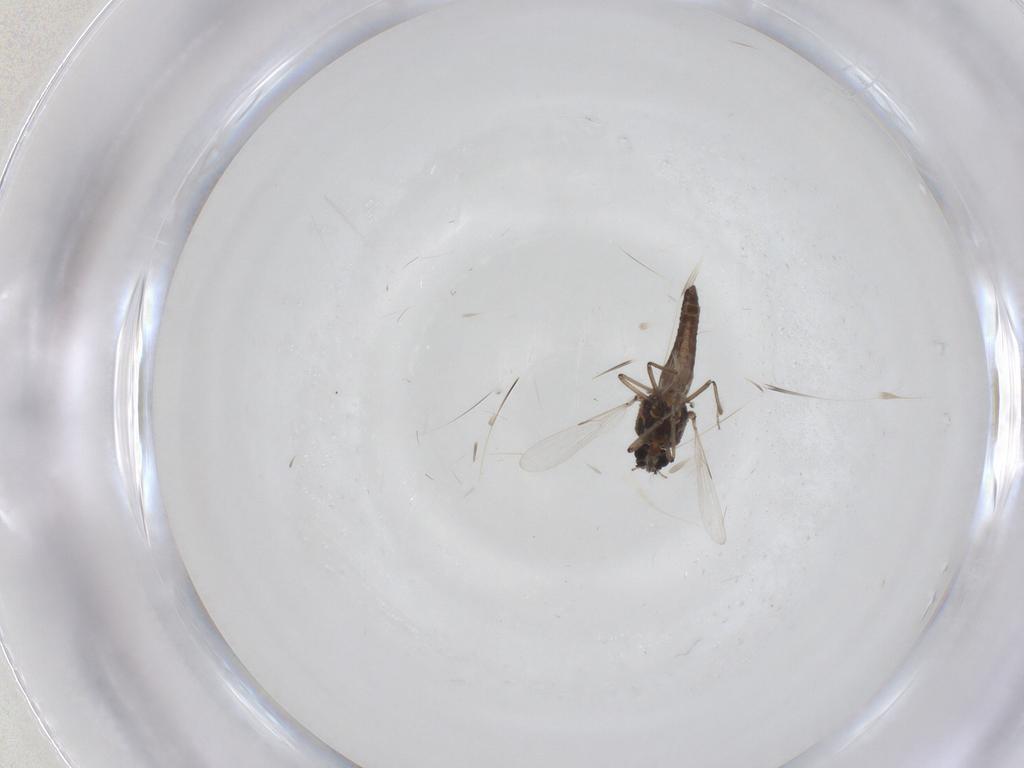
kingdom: Animalia
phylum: Arthropoda
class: Insecta
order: Diptera
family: Ceratopogonidae
